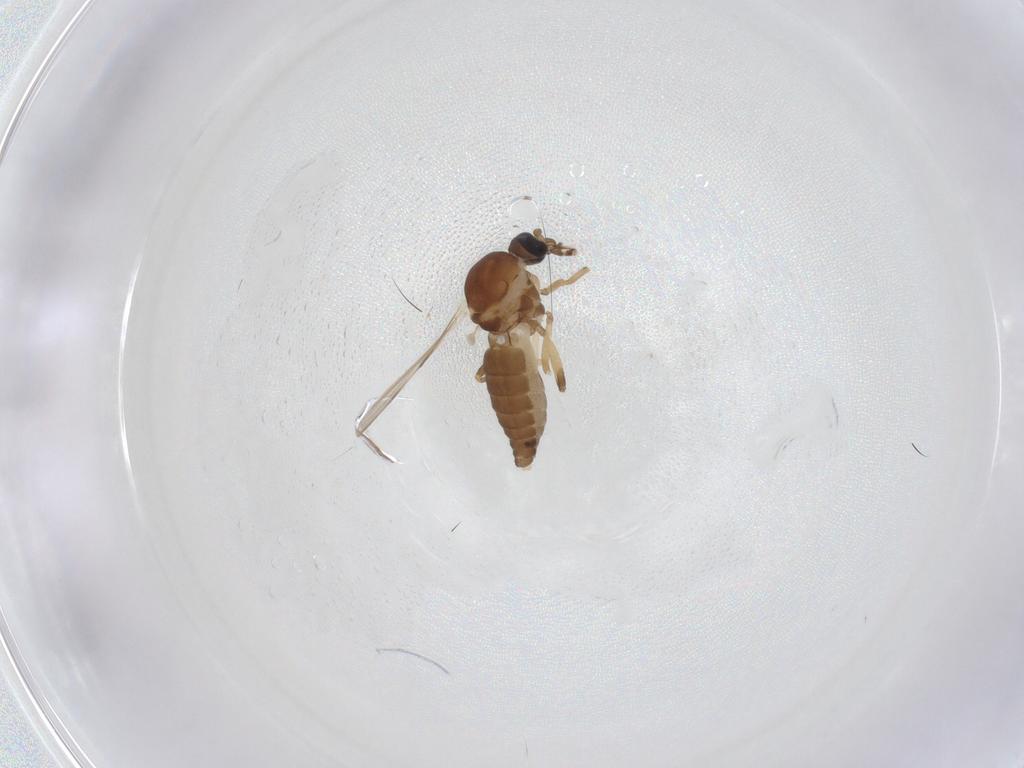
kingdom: Animalia
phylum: Arthropoda
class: Insecta
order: Diptera
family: Ceratopogonidae
